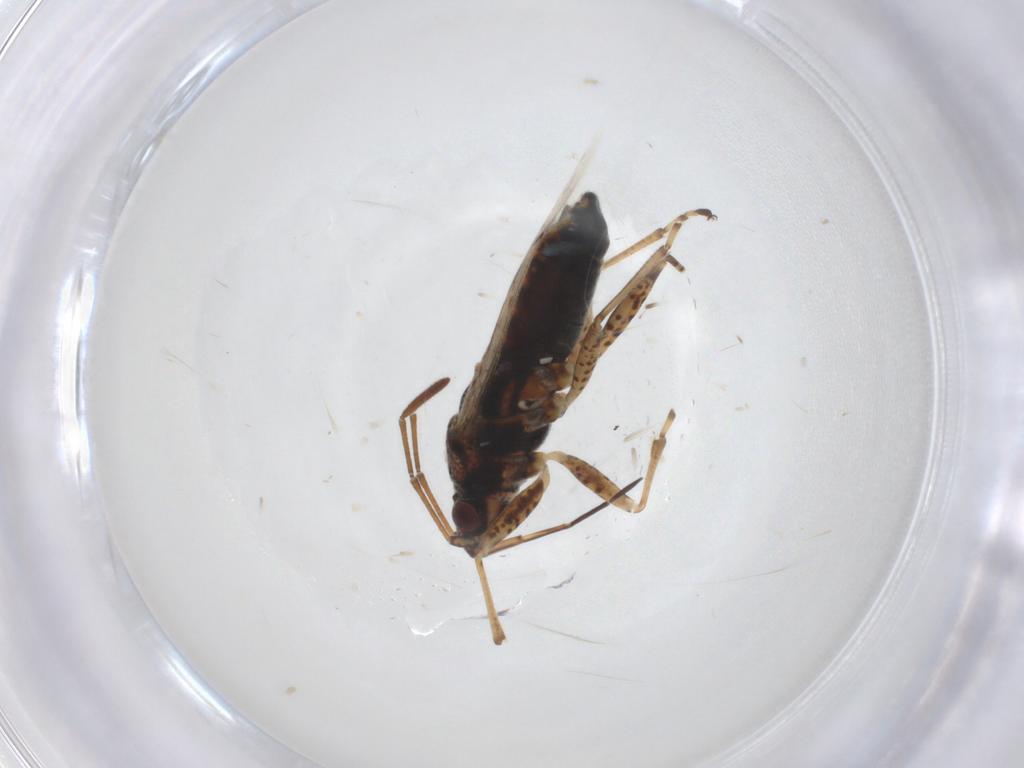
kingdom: Animalia
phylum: Arthropoda
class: Insecta
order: Hemiptera
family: Lygaeidae
